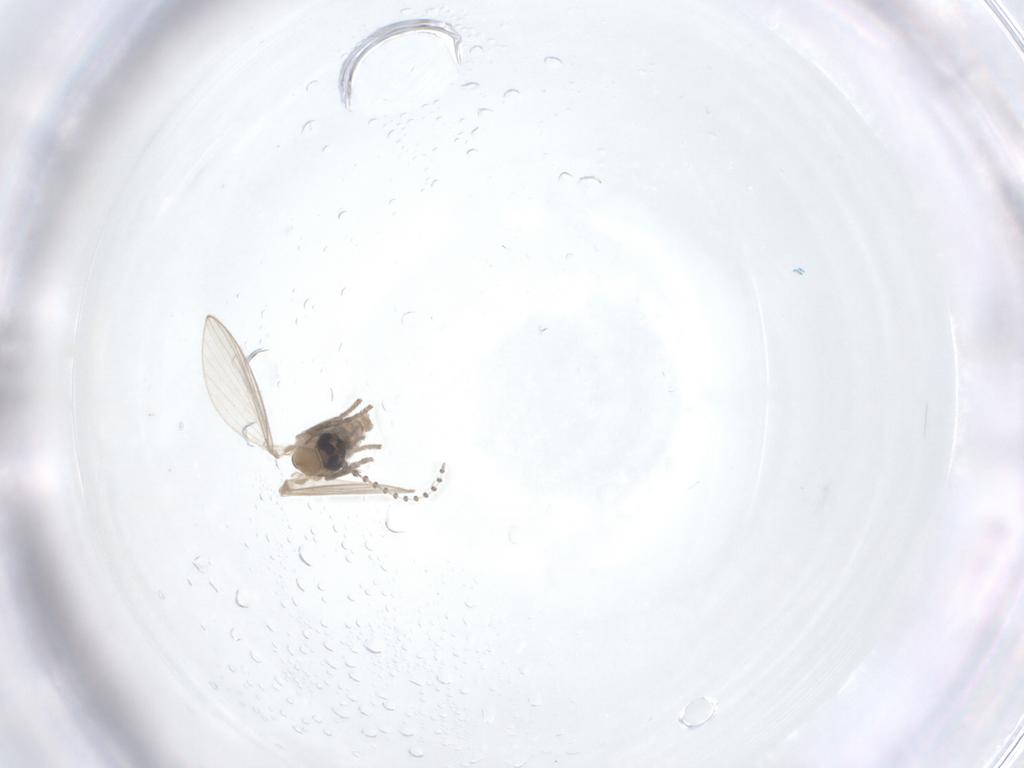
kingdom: Animalia
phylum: Arthropoda
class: Insecta
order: Diptera
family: Psychodidae
